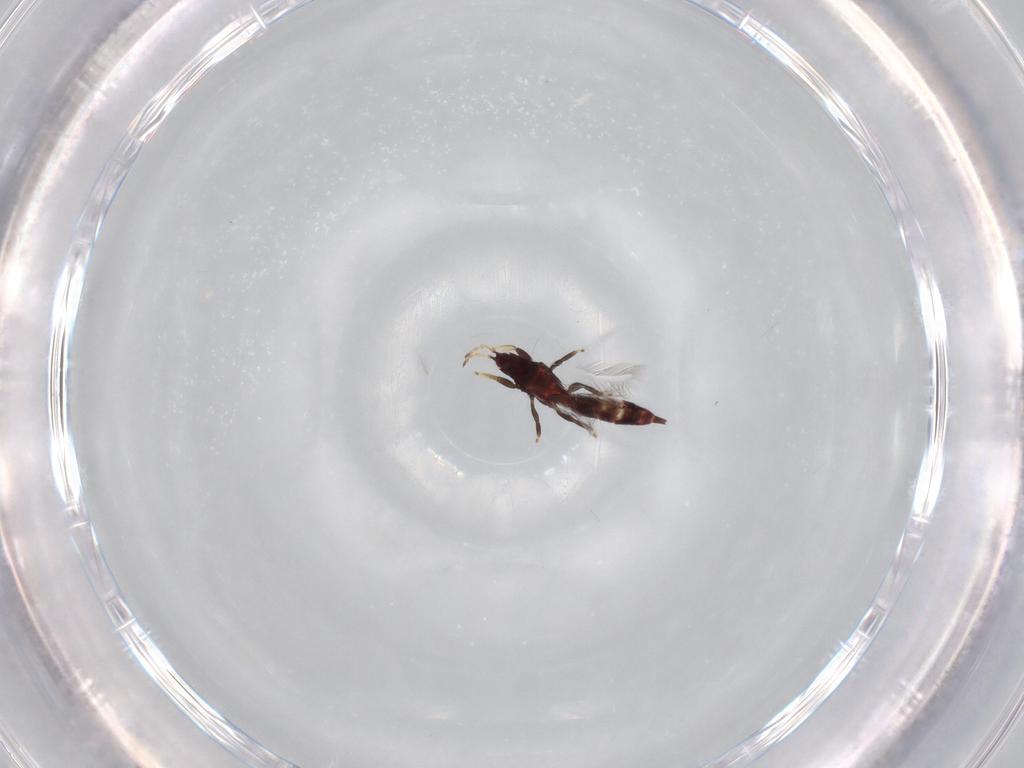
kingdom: Animalia
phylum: Arthropoda
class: Insecta
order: Thysanoptera
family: Phlaeothripidae
